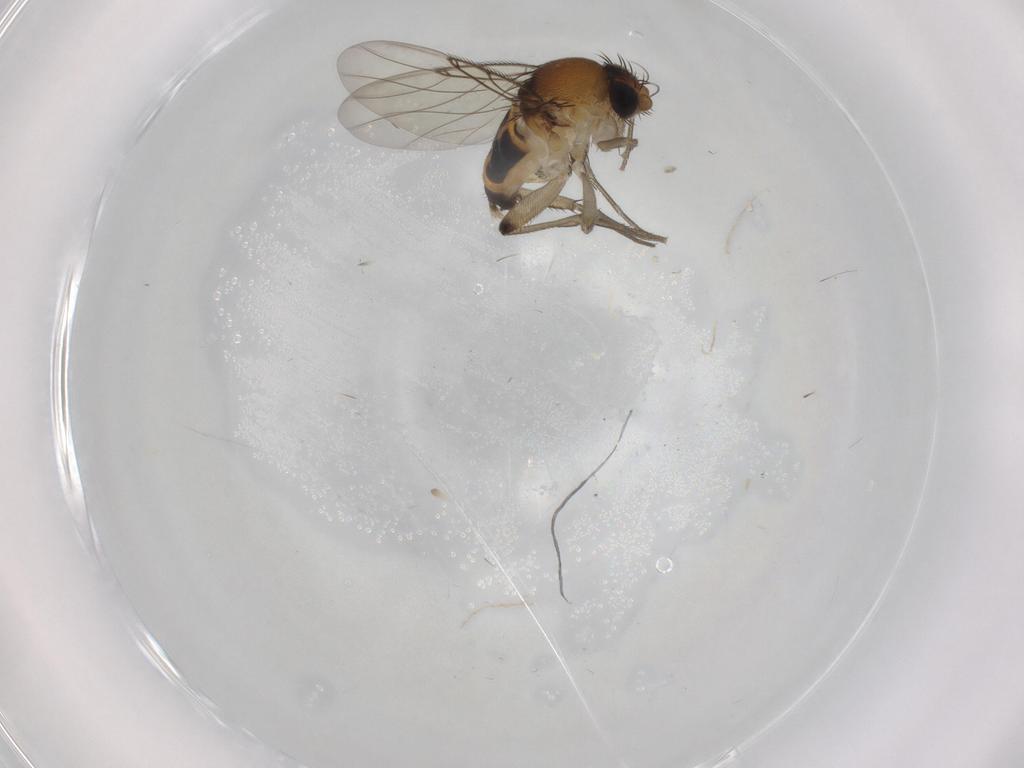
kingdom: Animalia
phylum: Arthropoda
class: Insecta
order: Diptera
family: Phoridae
